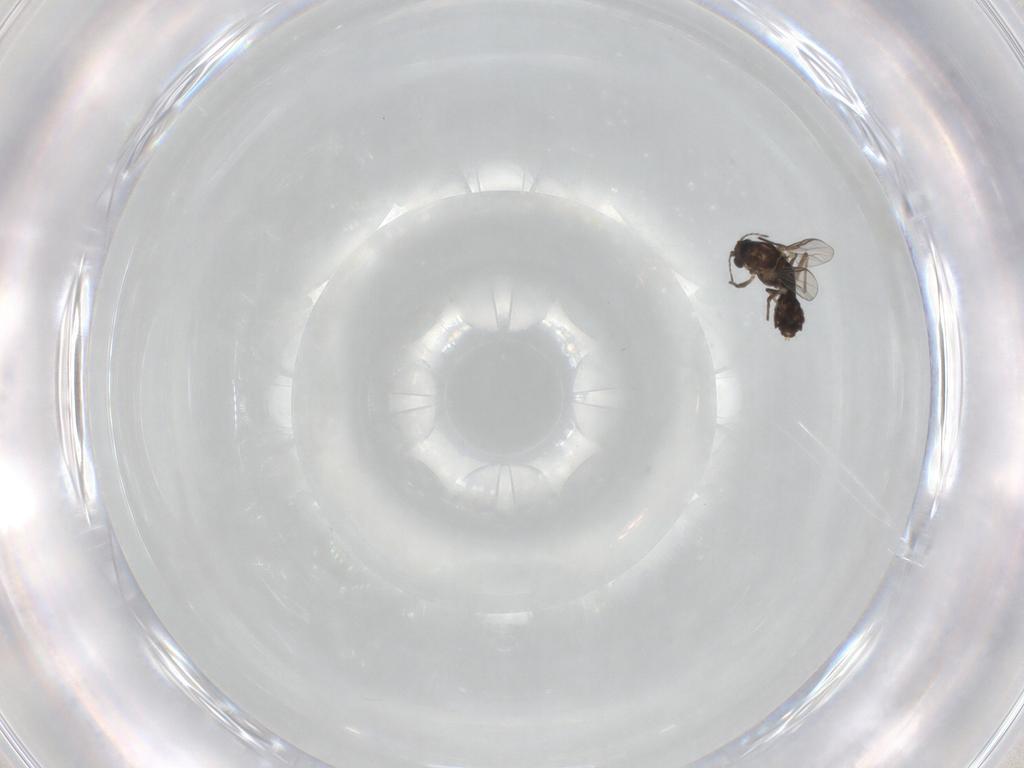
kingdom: Animalia
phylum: Arthropoda
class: Insecta
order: Diptera
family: Chironomidae
